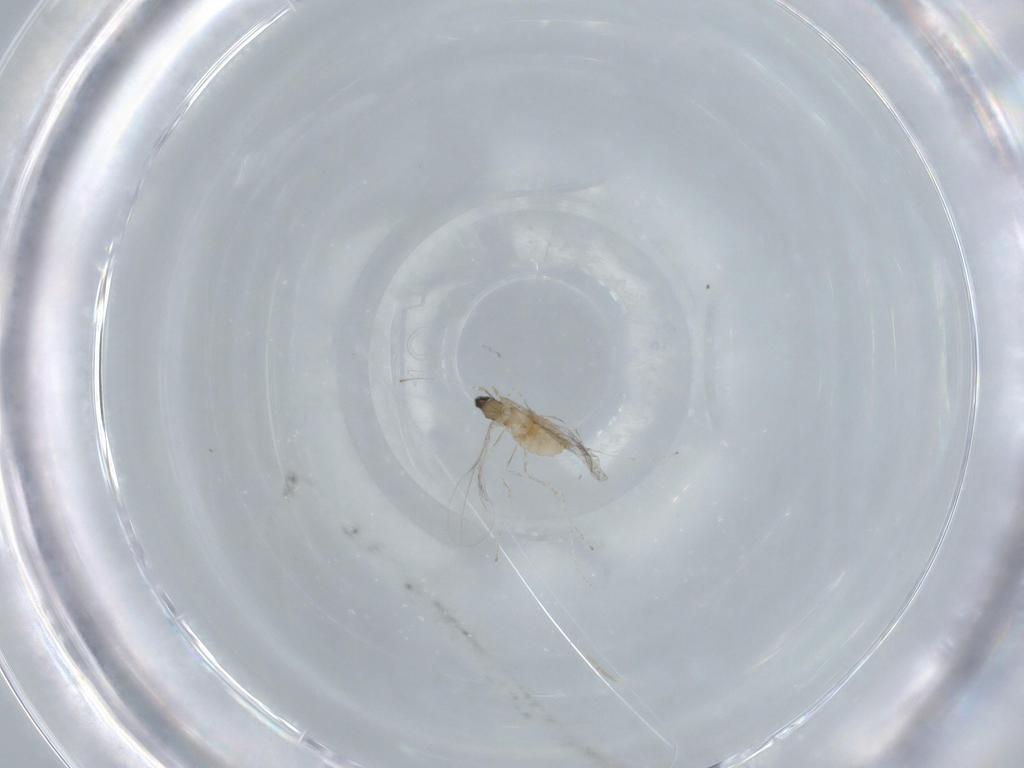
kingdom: Animalia
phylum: Arthropoda
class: Insecta
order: Diptera
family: Cecidomyiidae
